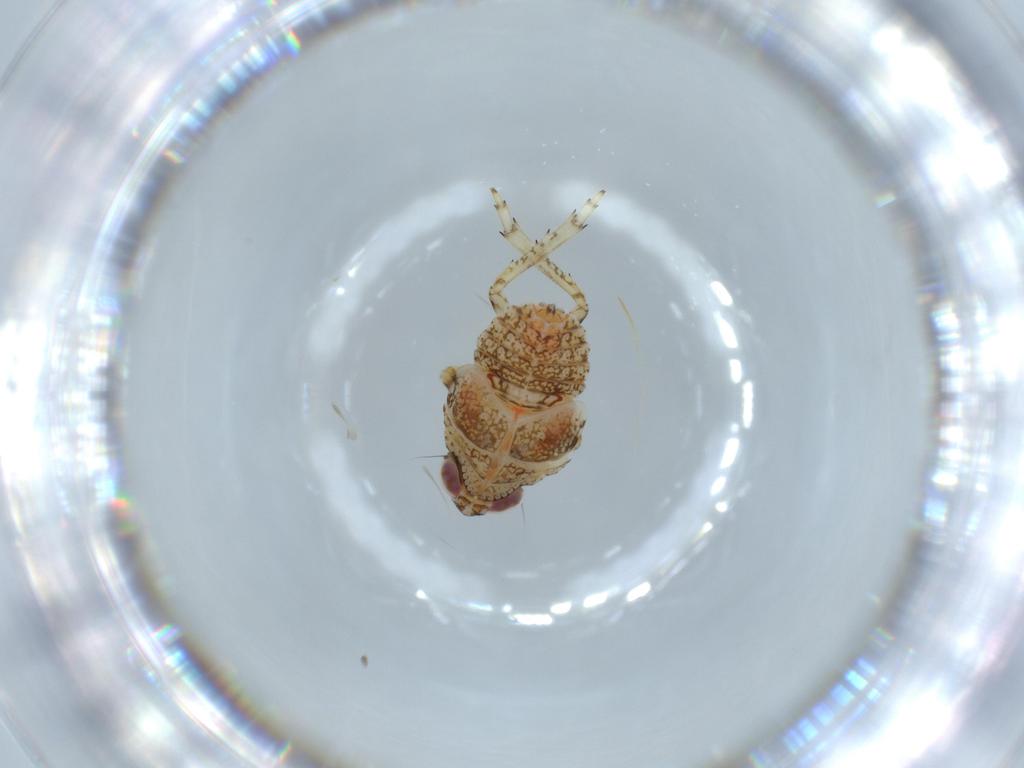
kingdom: Animalia
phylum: Arthropoda
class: Insecta
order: Hemiptera
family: Issidae
